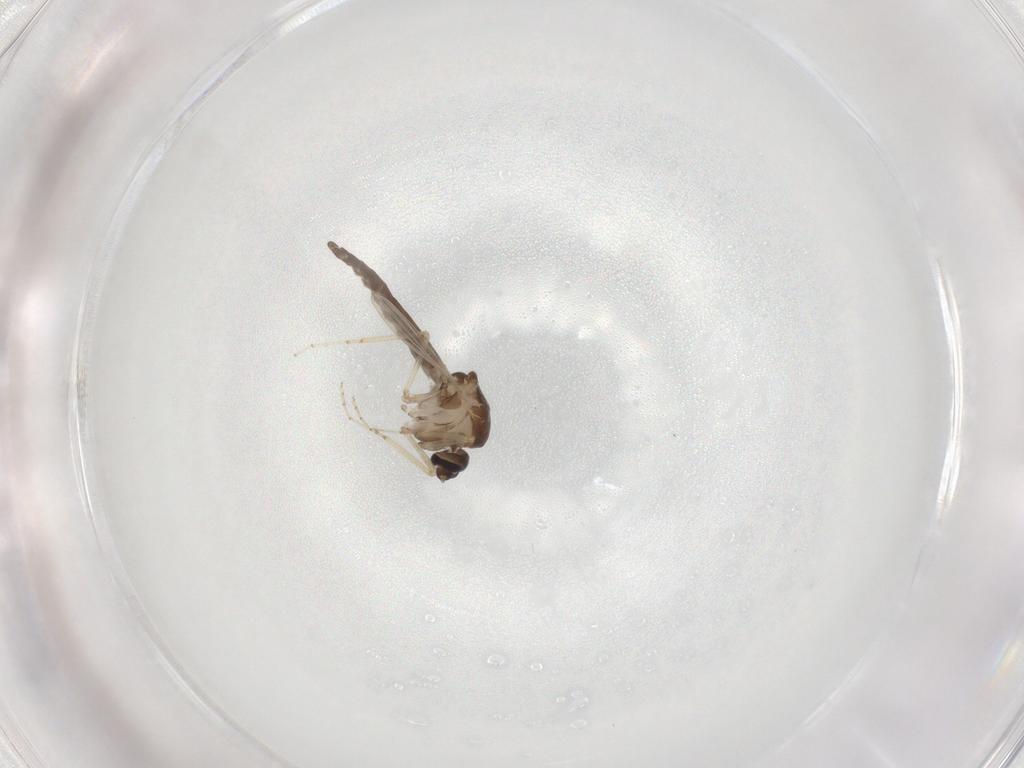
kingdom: Animalia
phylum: Arthropoda
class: Insecta
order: Diptera
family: Ceratopogonidae
